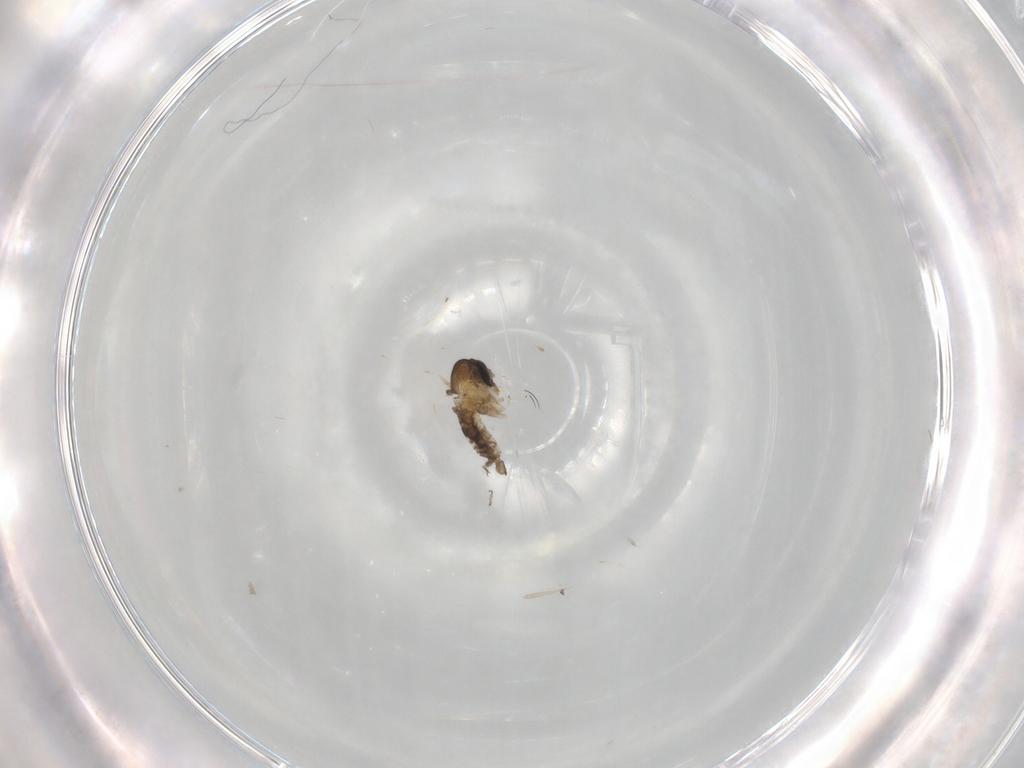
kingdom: Animalia
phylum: Arthropoda
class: Insecta
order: Diptera
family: Psychodidae
